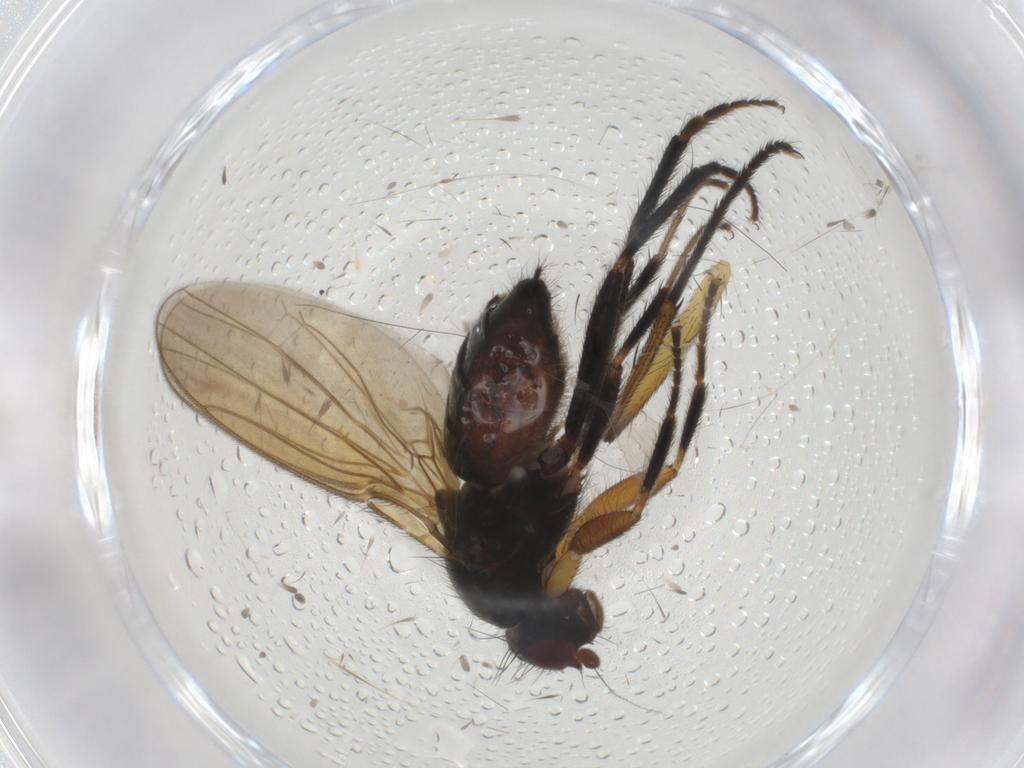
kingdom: Animalia
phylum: Arthropoda
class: Insecta
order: Diptera
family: Sphaeroceridae
